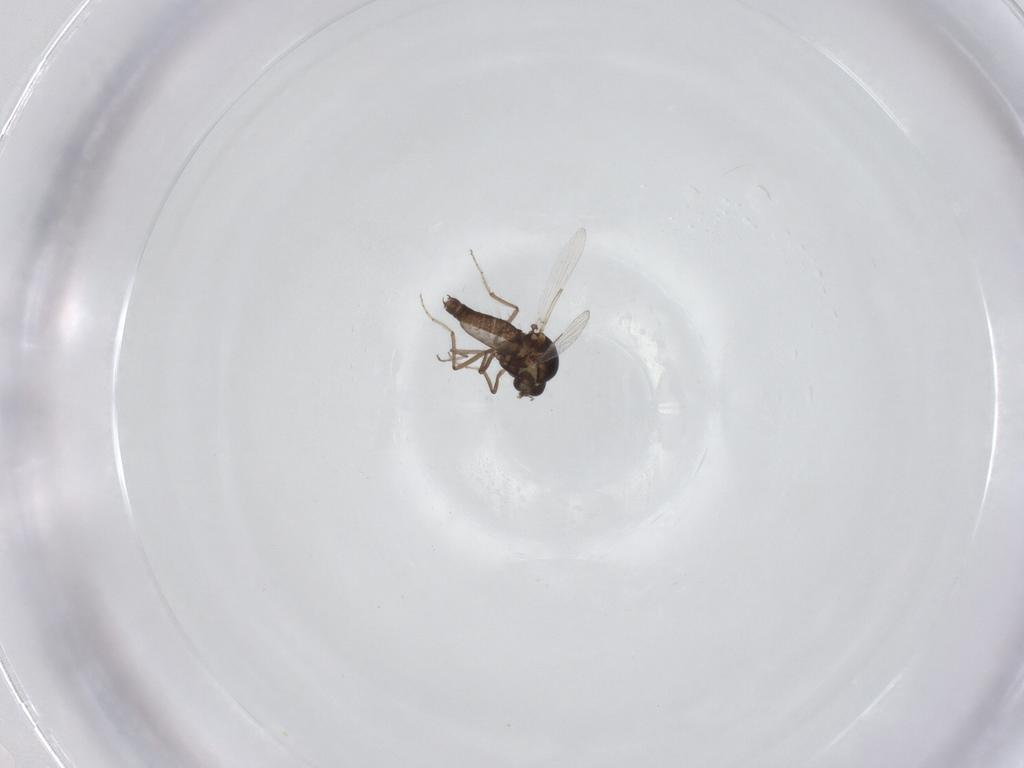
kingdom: Animalia
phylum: Arthropoda
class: Insecta
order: Diptera
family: Ceratopogonidae
